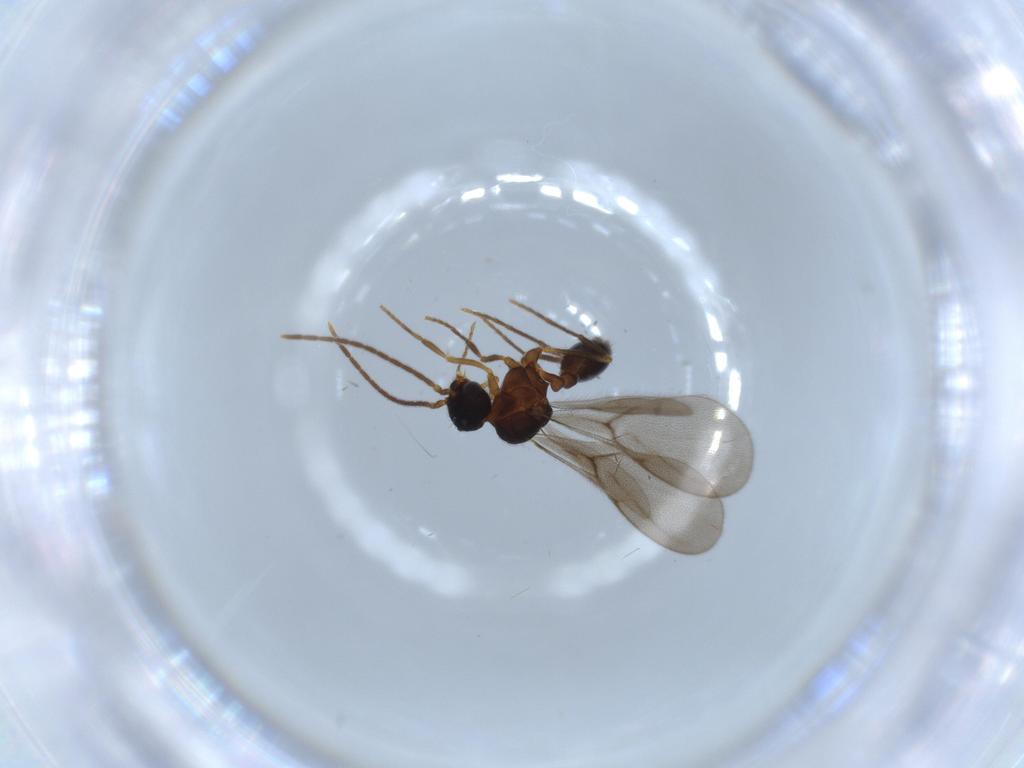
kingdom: Animalia
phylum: Arthropoda
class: Insecta
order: Hymenoptera
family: Formicidae
